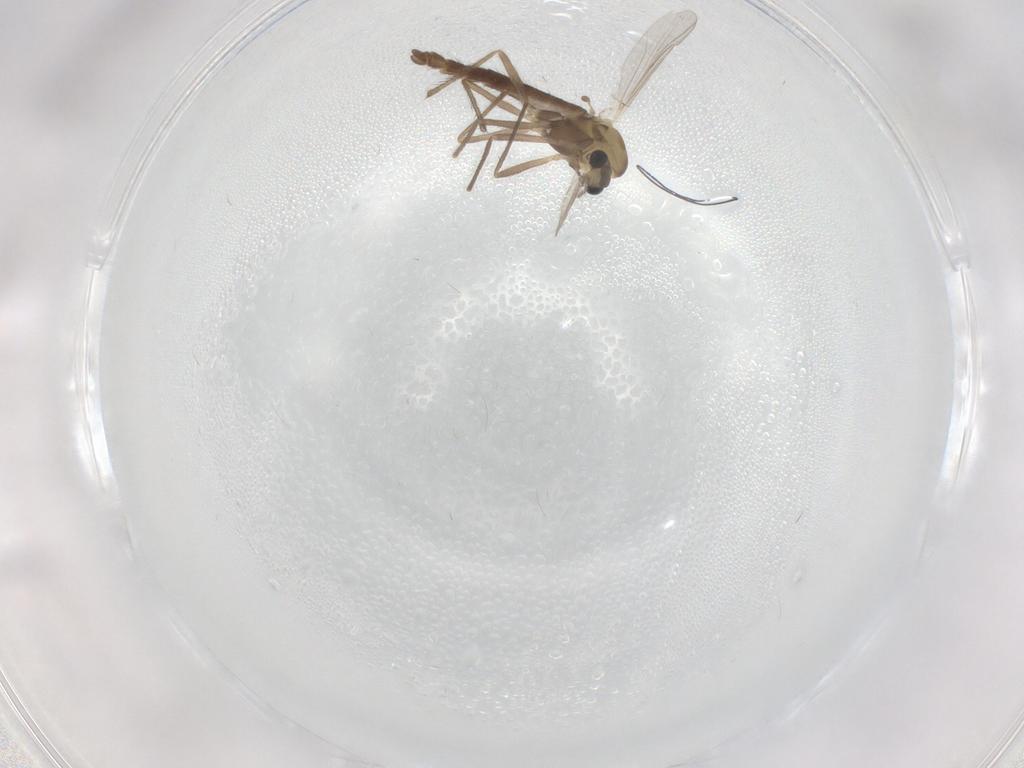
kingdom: Animalia
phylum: Arthropoda
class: Insecta
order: Diptera
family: Chironomidae
